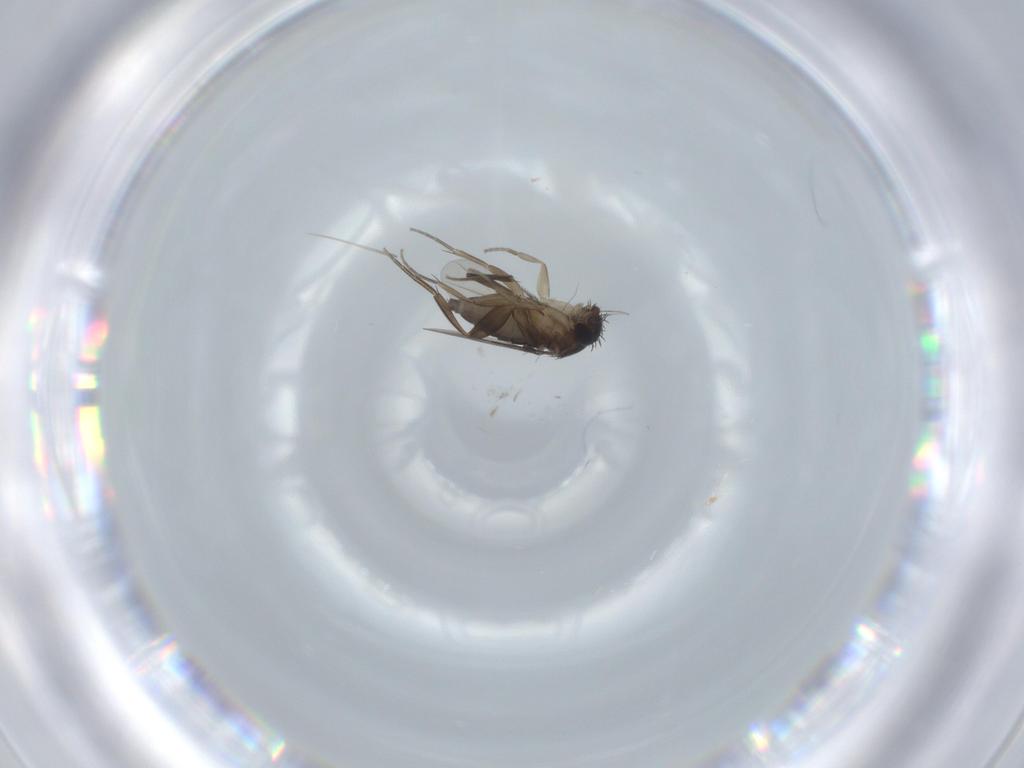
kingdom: Animalia
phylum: Arthropoda
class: Insecta
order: Diptera
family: Phoridae
